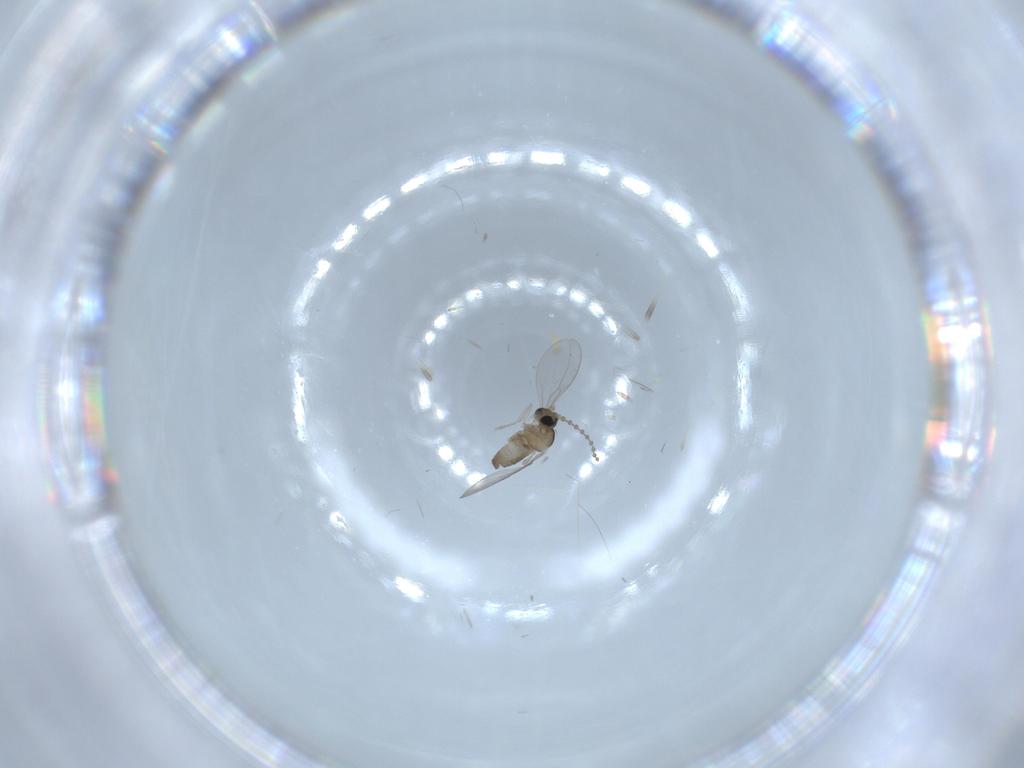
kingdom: Animalia
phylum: Arthropoda
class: Insecta
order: Diptera
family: Cecidomyiidae
